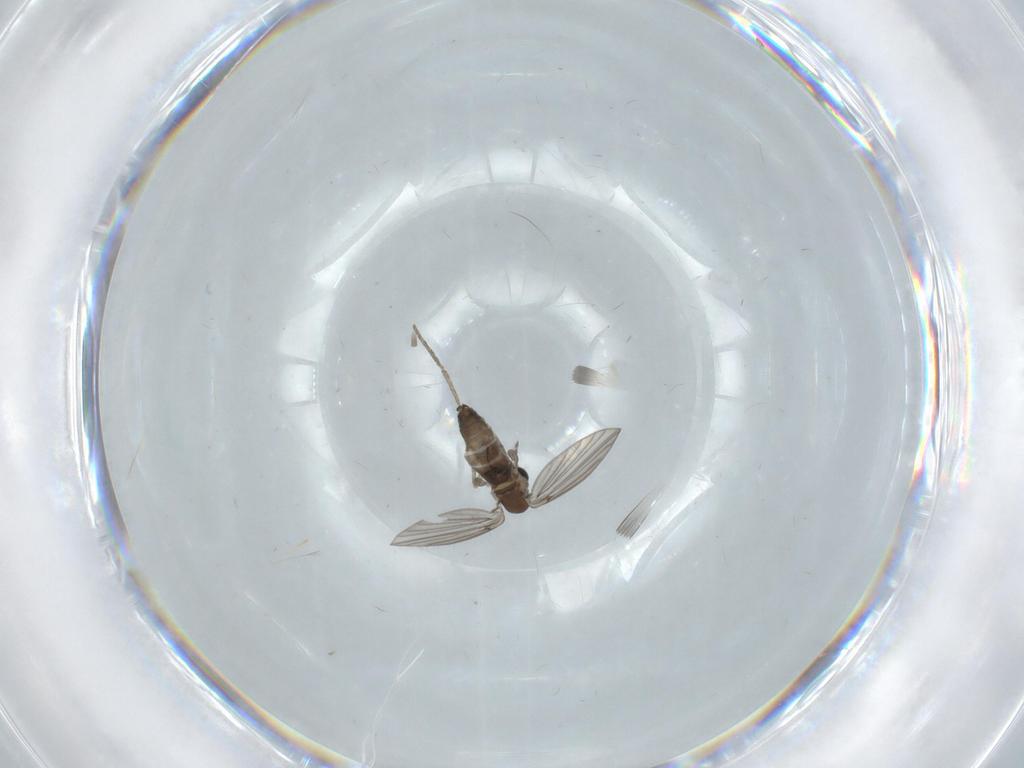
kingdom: Animalia
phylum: Arthropoda
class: Insecta
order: Diptera
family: Psychodidae
